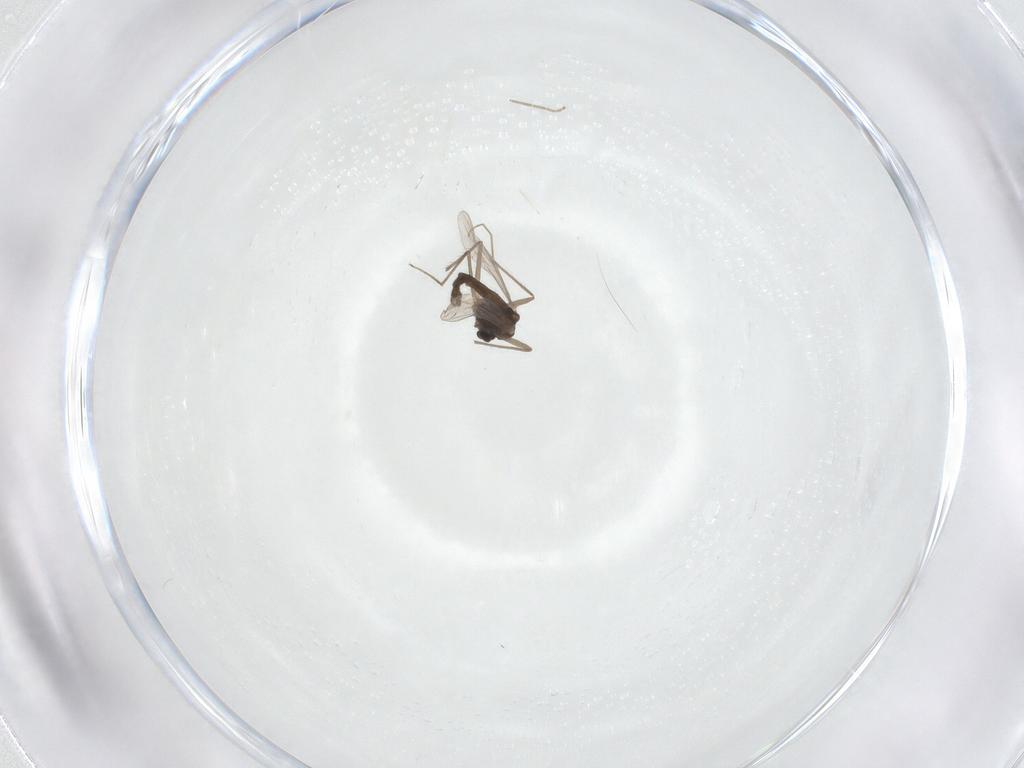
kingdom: Animalia
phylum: Arthropoda
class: Insecta
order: Diptera
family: Chironomidae
